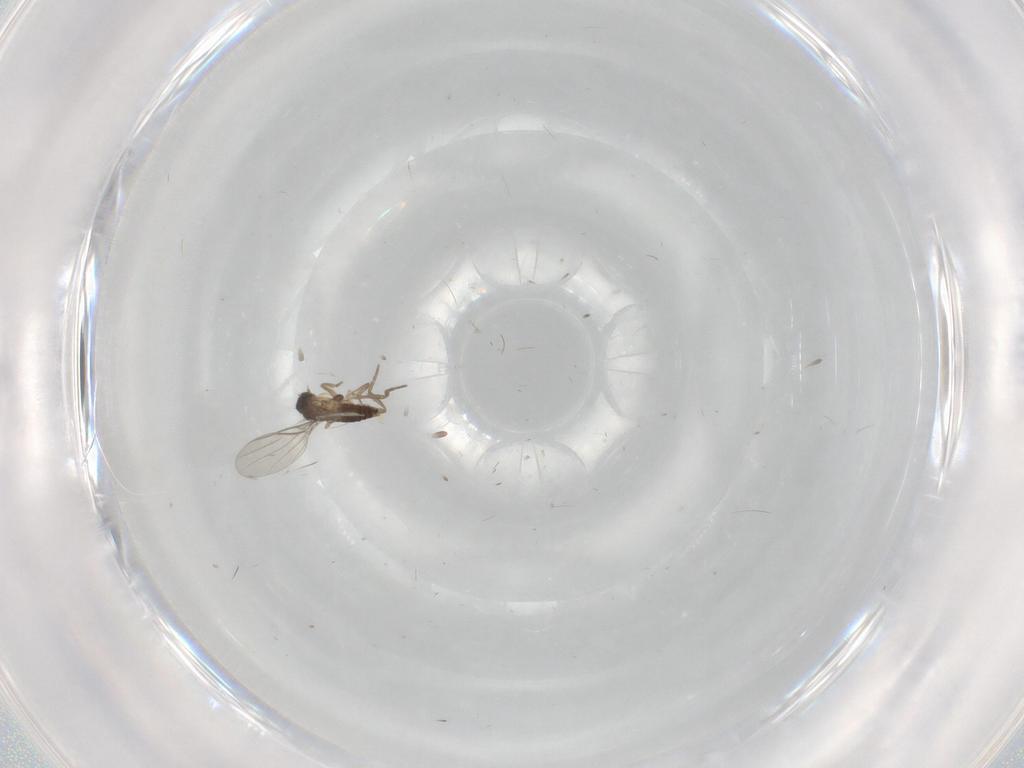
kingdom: Animalia
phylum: Arthropoda
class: Insecta
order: Diptera
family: Phoridae
